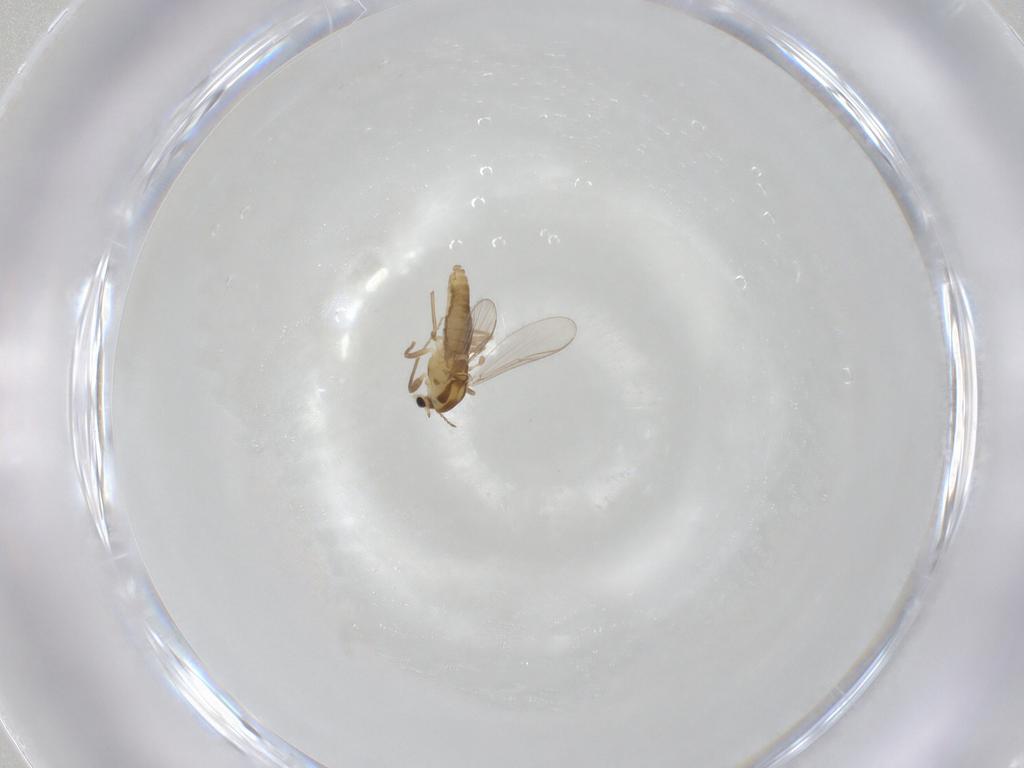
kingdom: Animalia
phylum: Arthropoda
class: Insecta
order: Diptera
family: Chironomidae
